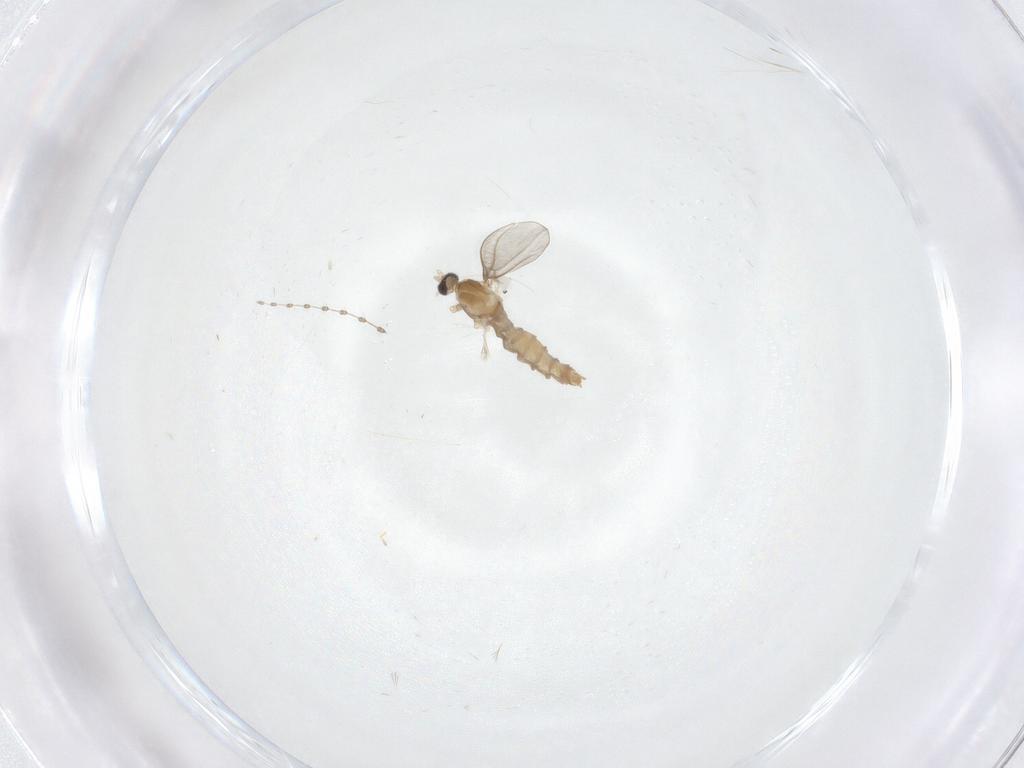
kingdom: Animalia
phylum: Arthropoda
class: Insecta
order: Diptera
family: Cecidomyiidae
